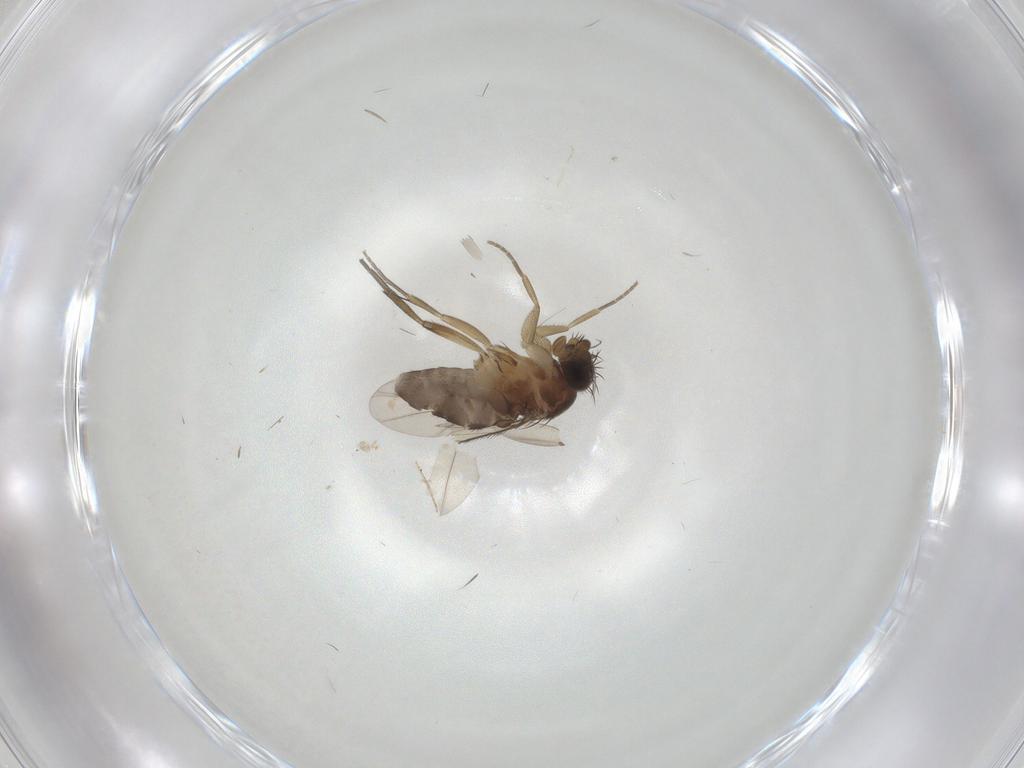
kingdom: Animalia
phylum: Arthropoda
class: Insecta
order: Diptera
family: Phoridae
